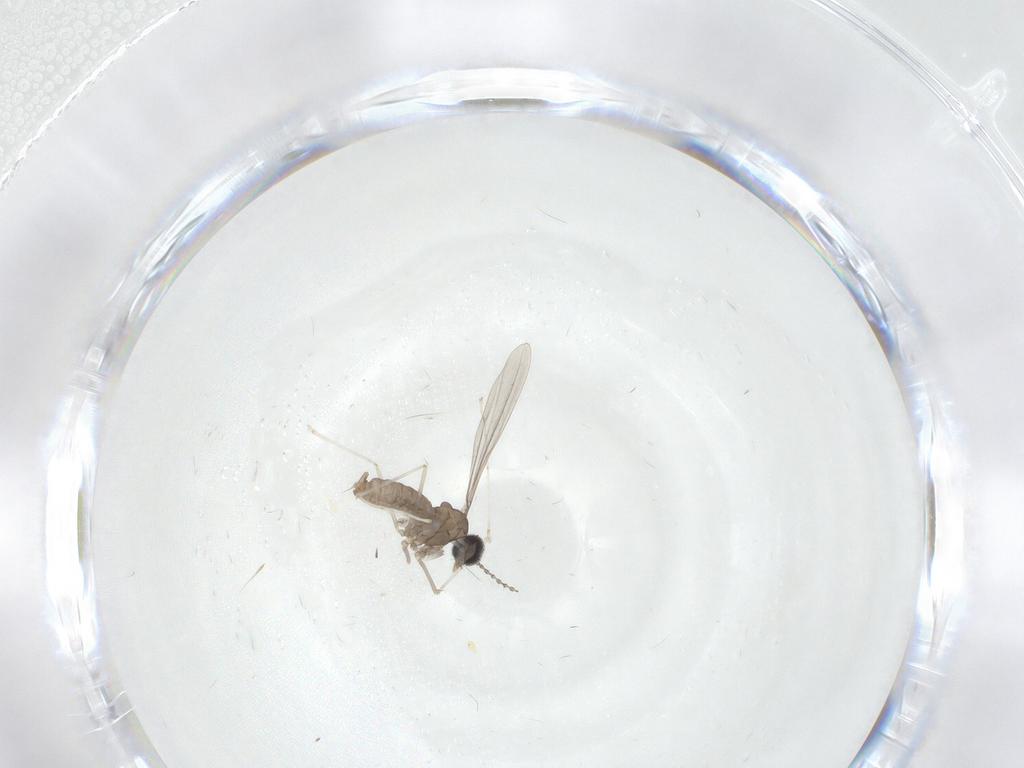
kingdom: Animalia
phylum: Arthropoda
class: Insecta
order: Diptera
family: Cecidomyiidae
